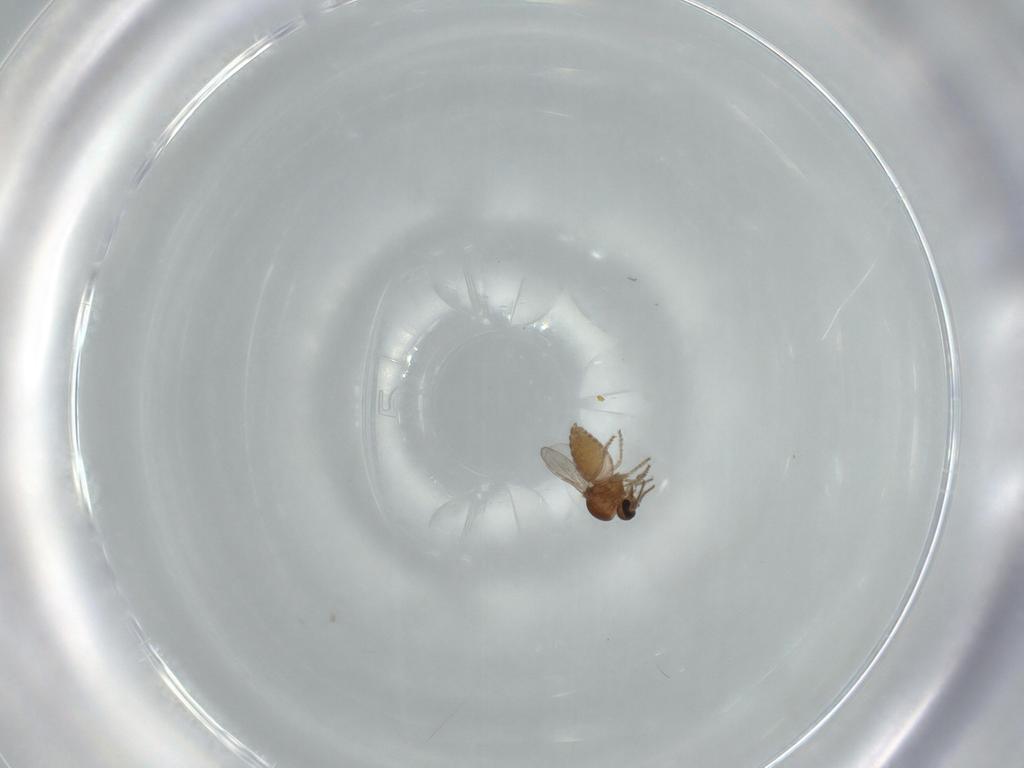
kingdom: Animalia
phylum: Arthropoda
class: Insecta
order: Diptera
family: Ceratopogonidae
